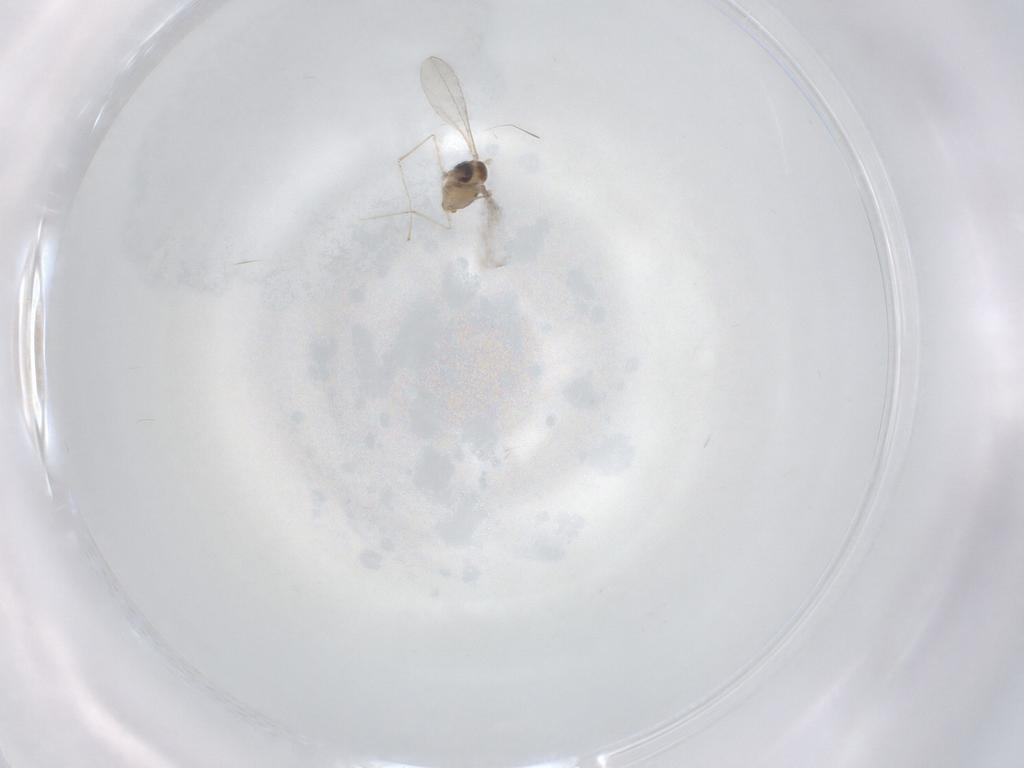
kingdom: Animalia
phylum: Arthropoda
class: Insecta
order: Diptera
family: Cecidomyiidae
